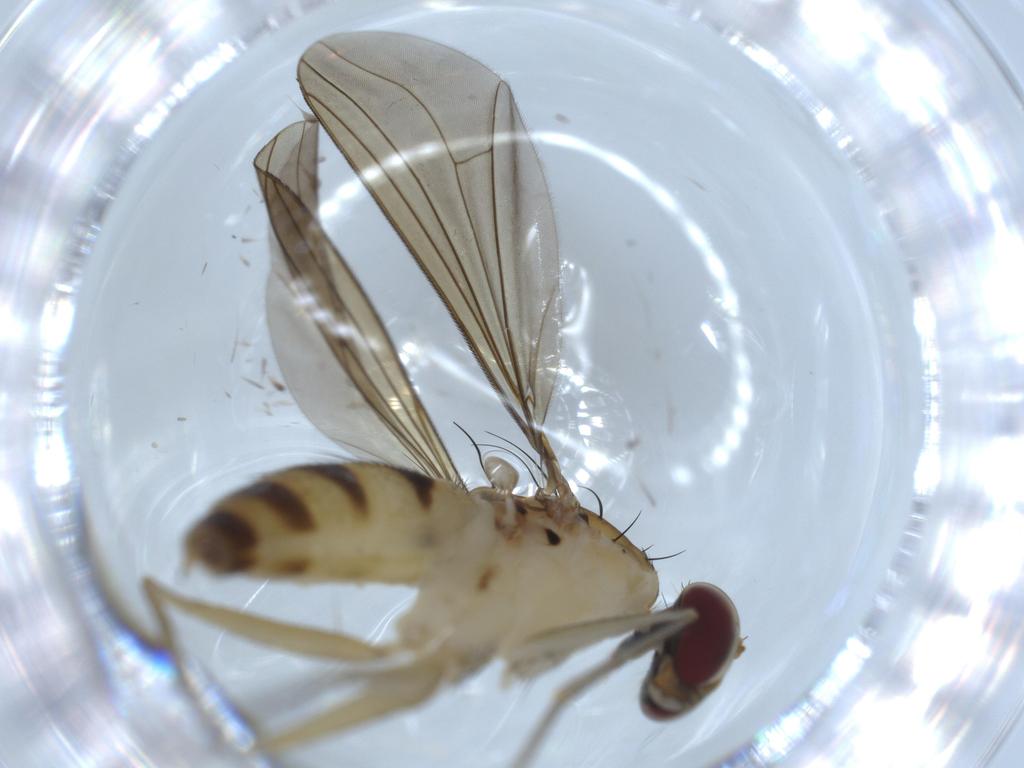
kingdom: Animalia
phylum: Arthropoda
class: Insecta
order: Diptera
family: Dolichopodidae
